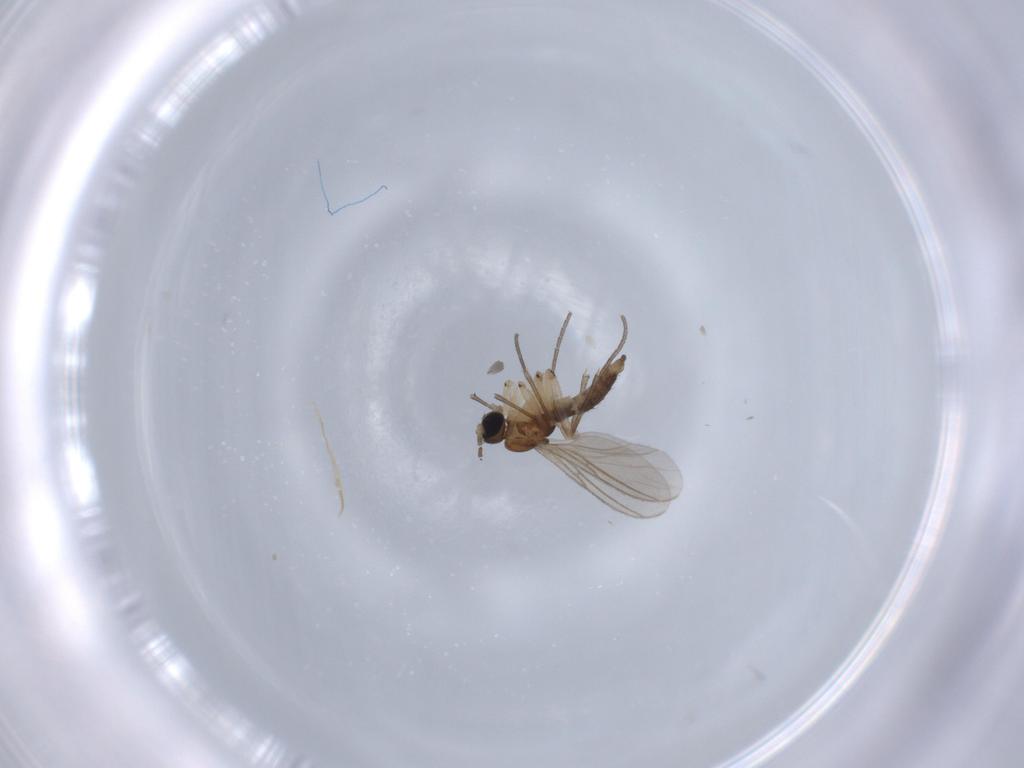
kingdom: Animalia
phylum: Arthropoda
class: Insecta
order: Diptera
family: Sciaridae
